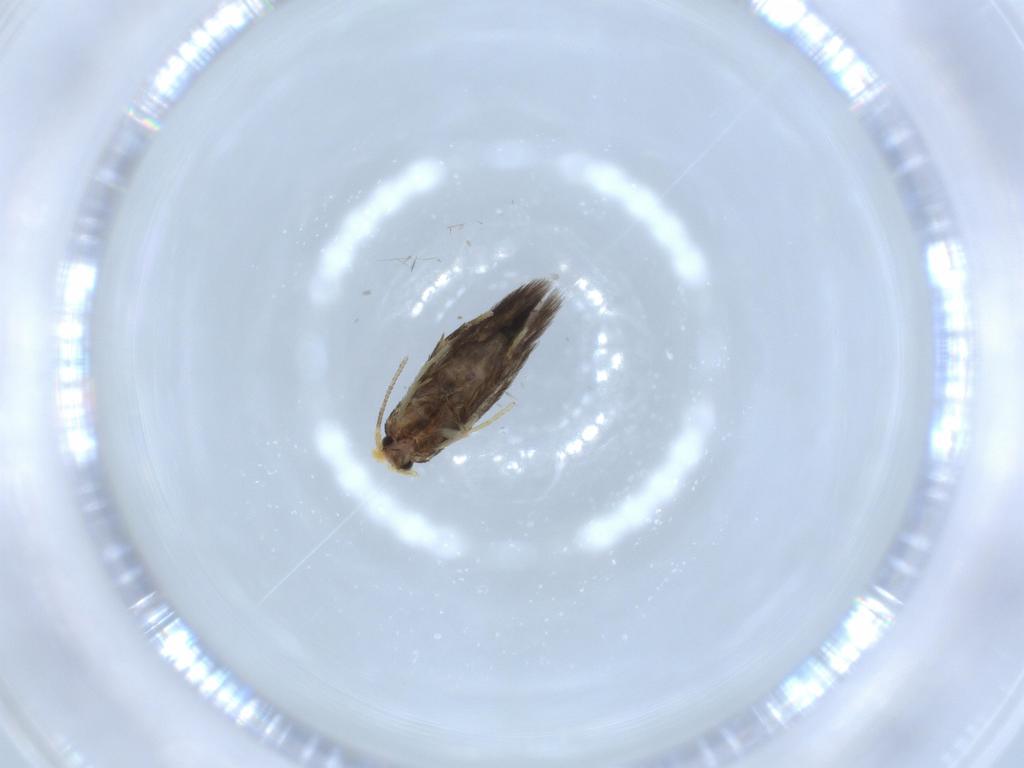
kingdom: Animalia
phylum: Arthropoda
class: Insecta
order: Lepidoptera
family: Nepticulidae
